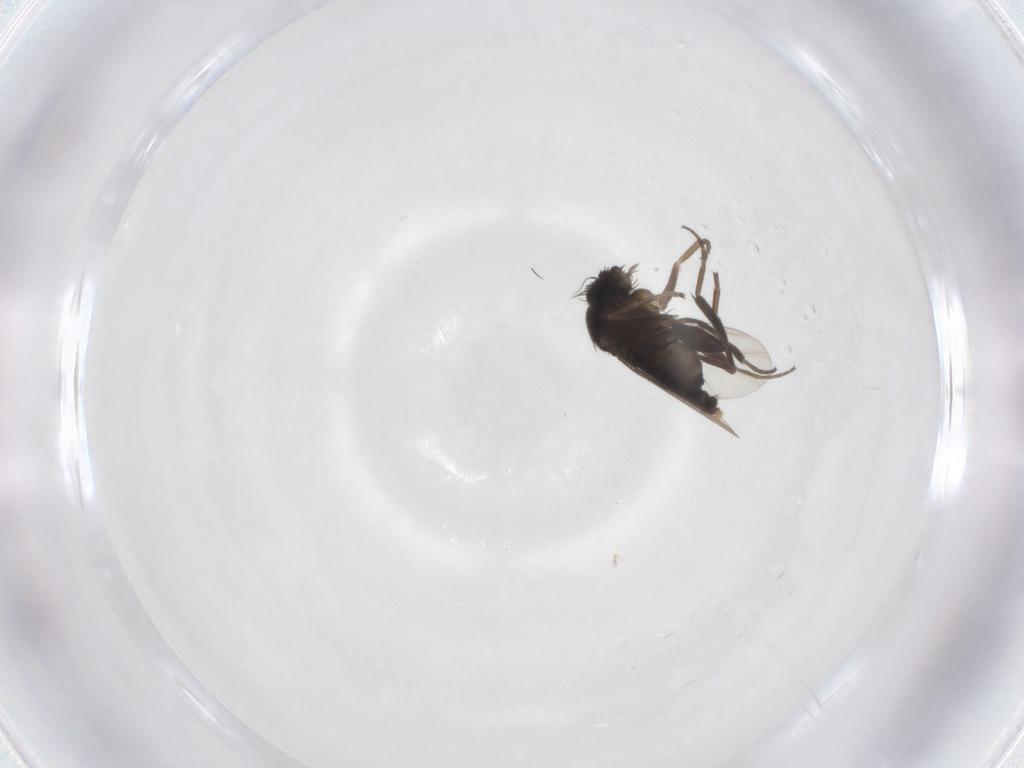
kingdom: Animalia
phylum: Arthropoda
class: Insecta
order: Diptera
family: Phoridae
